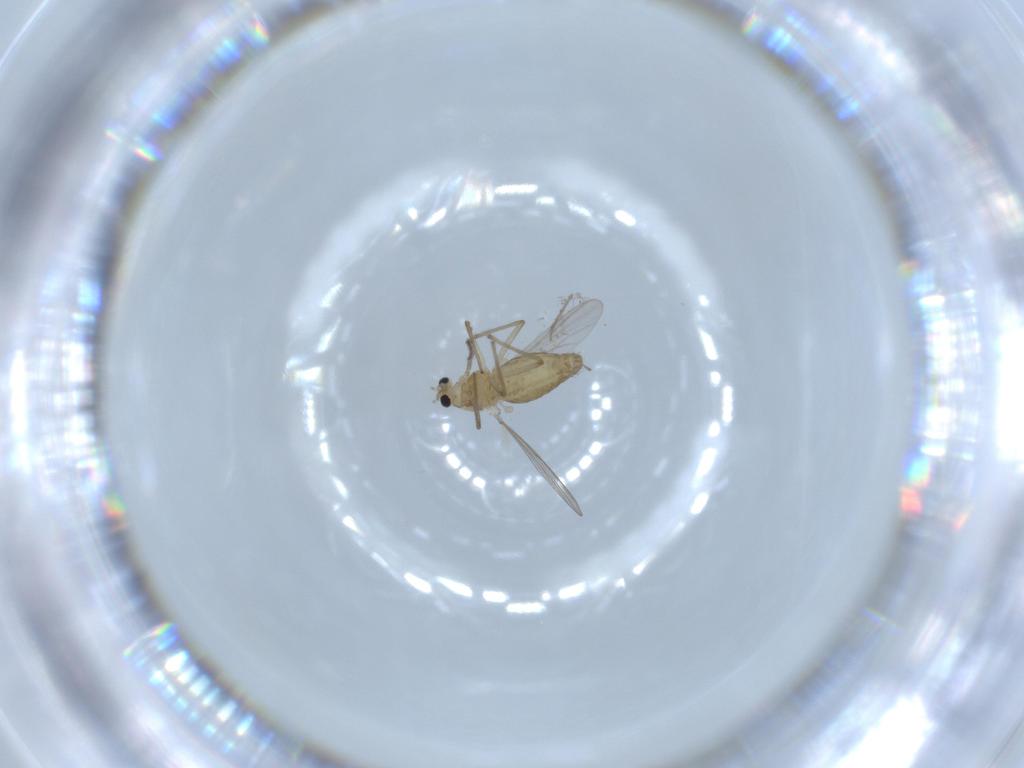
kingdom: Animalia
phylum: Arthropoda
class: Insecta
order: Diptera
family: Chironomidae
